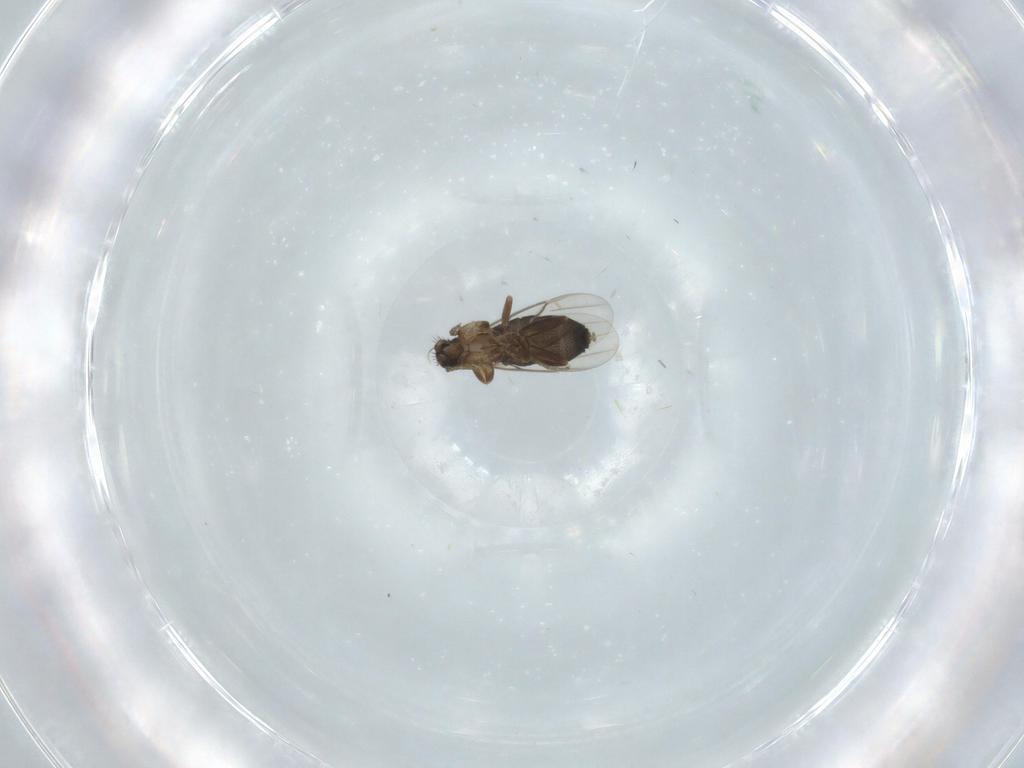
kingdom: Animalia
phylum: Arthropoda
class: Insecta
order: Diptera
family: Phoridae
